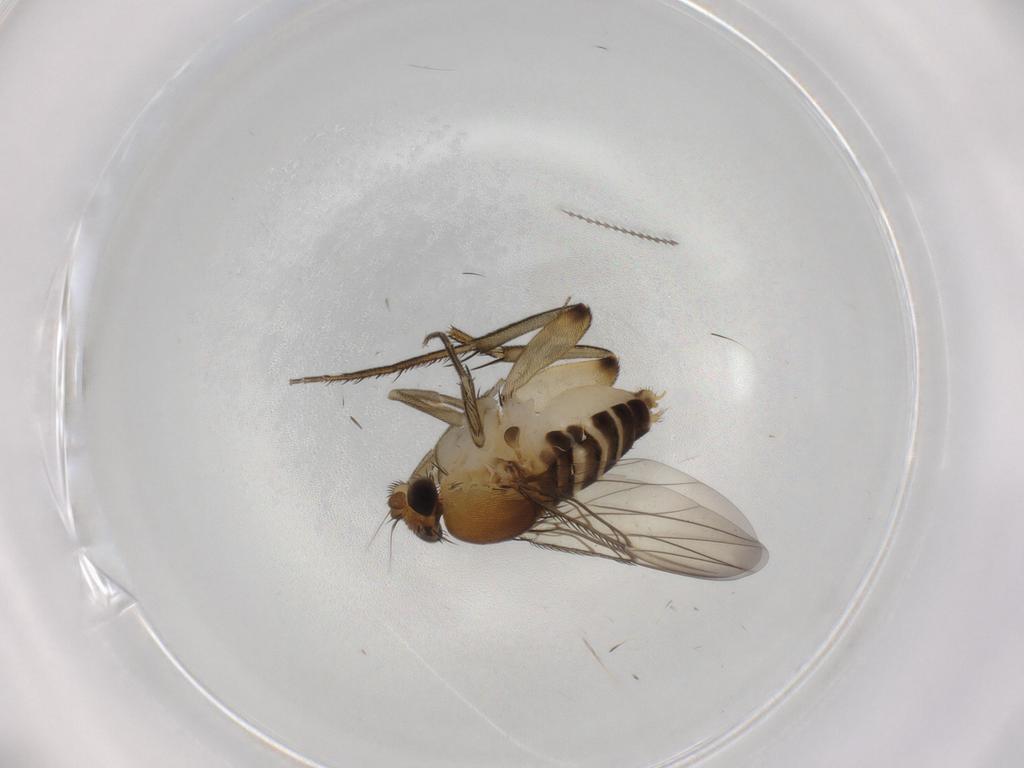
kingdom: Animalia
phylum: Arthropoda
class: Insecta
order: Diptera
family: Phoridae
